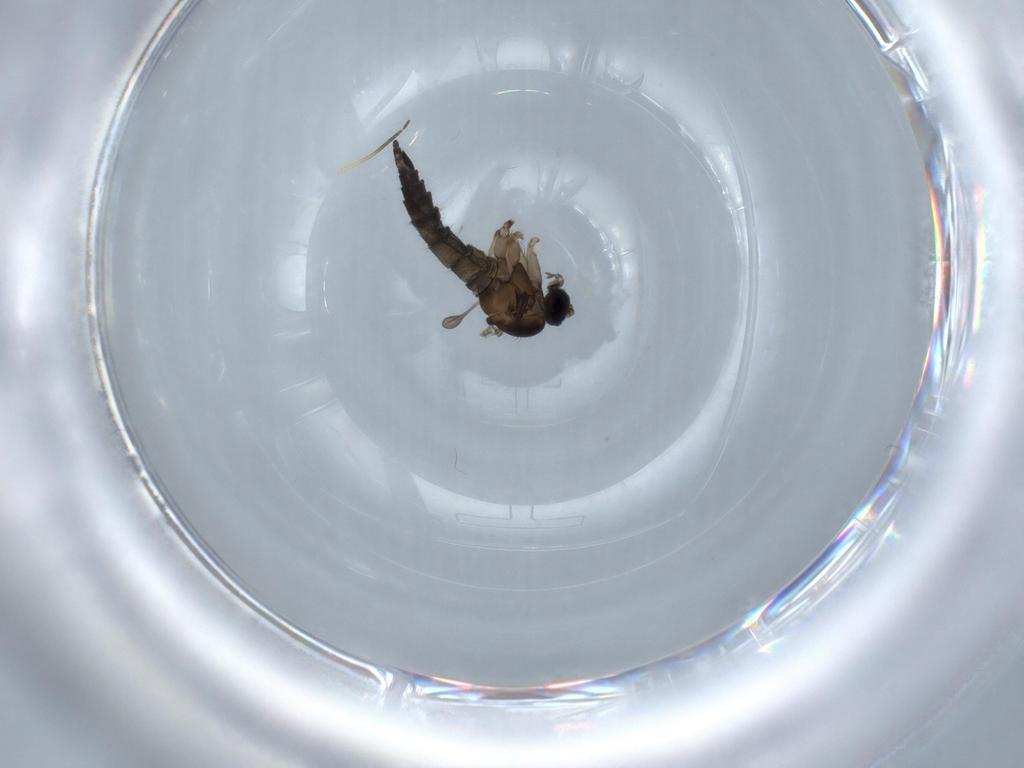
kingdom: Animalia
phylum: Arthropoda
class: Insecta
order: Diptera
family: Sciaridae
